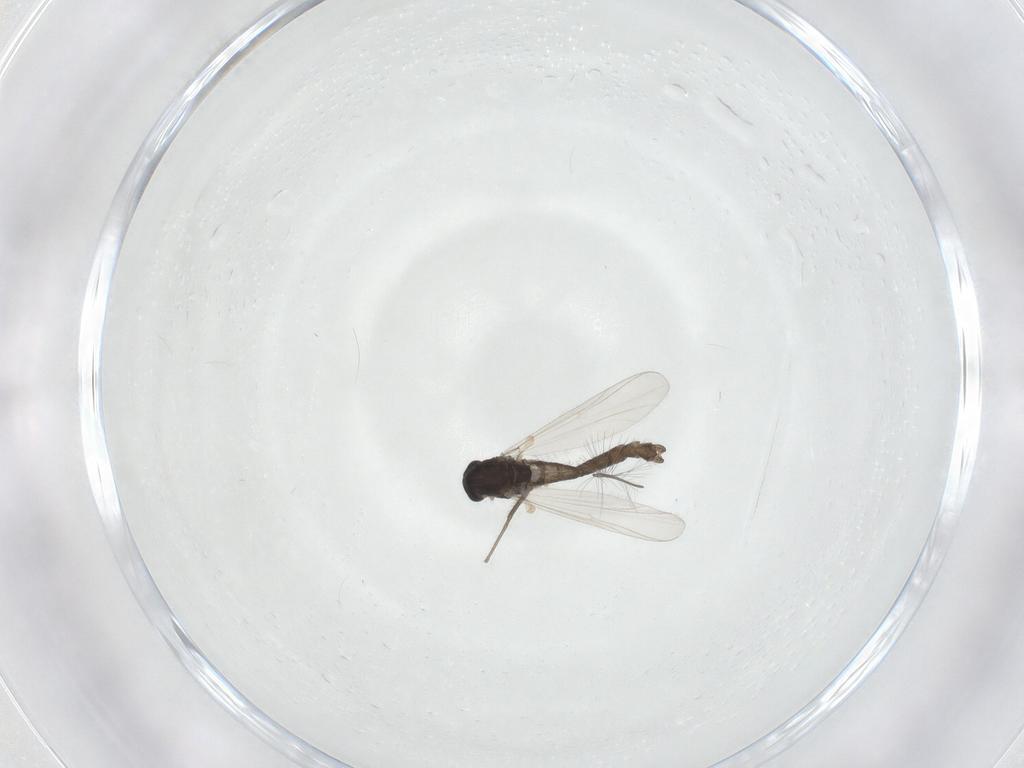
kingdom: Animalia
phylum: Arthropoda
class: Insecta
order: Diptera
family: Chironomidae
